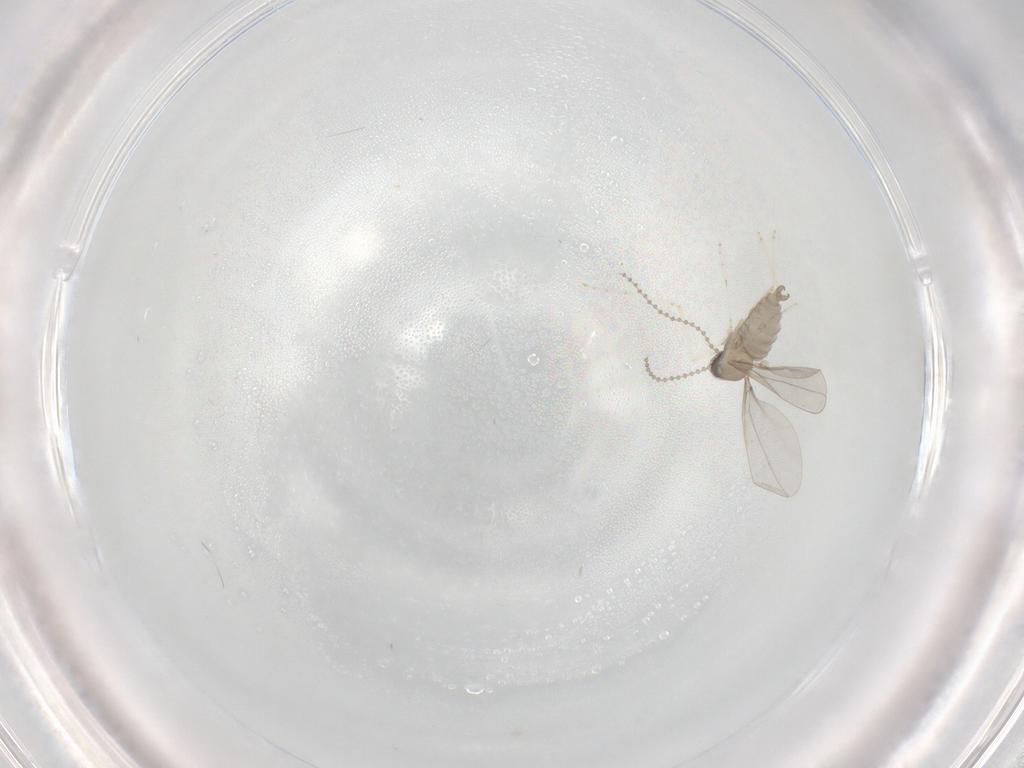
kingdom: Animalia
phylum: Arthropoda
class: Insecta
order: Diptera
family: Cecidomyiidae
